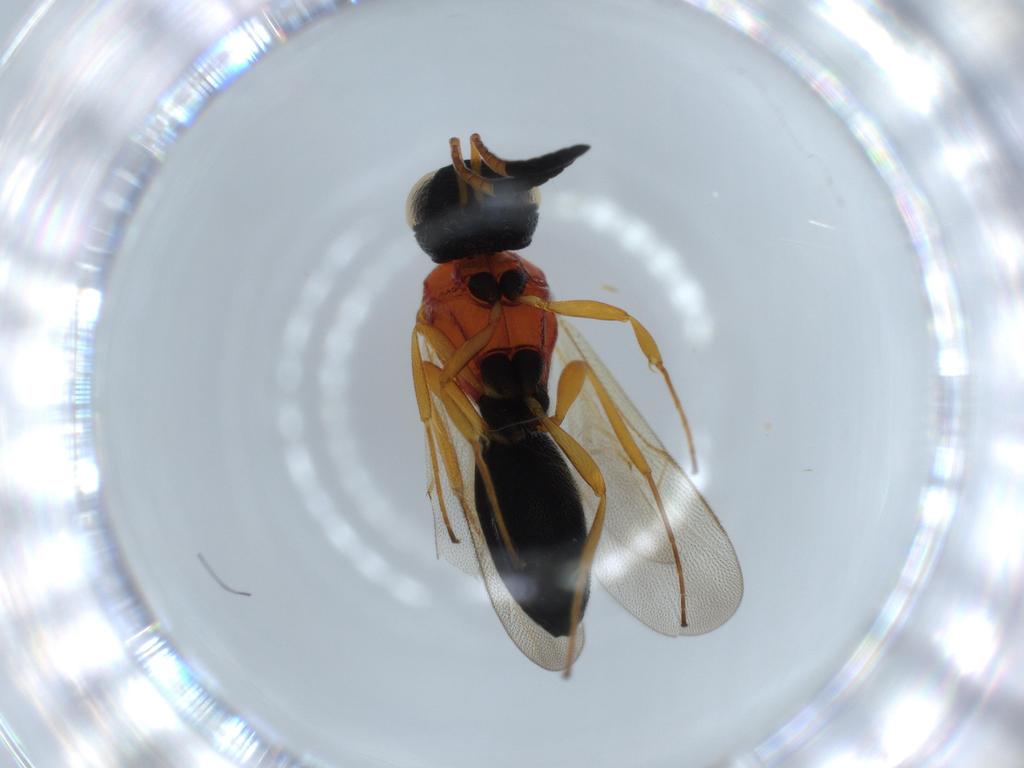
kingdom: Animalia
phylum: Arthropoda
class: Insecta
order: Hymenoptera
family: Scelionidae
